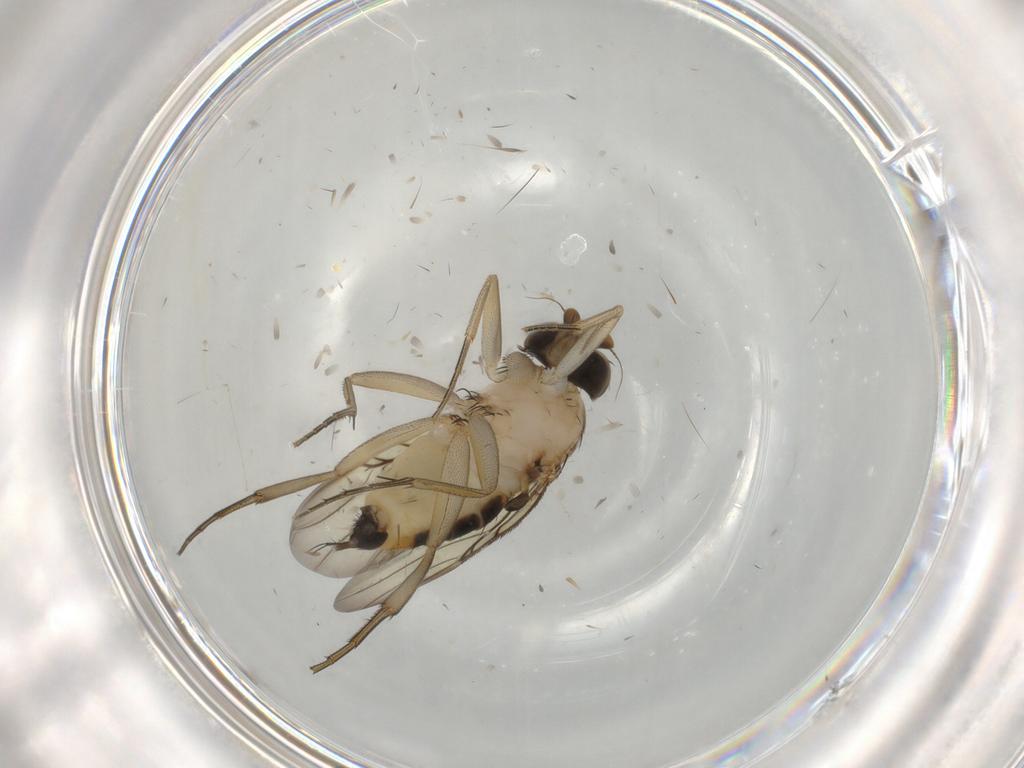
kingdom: Animalia
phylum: Arthropoda
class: Insecta
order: Diptera
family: Phoridae
